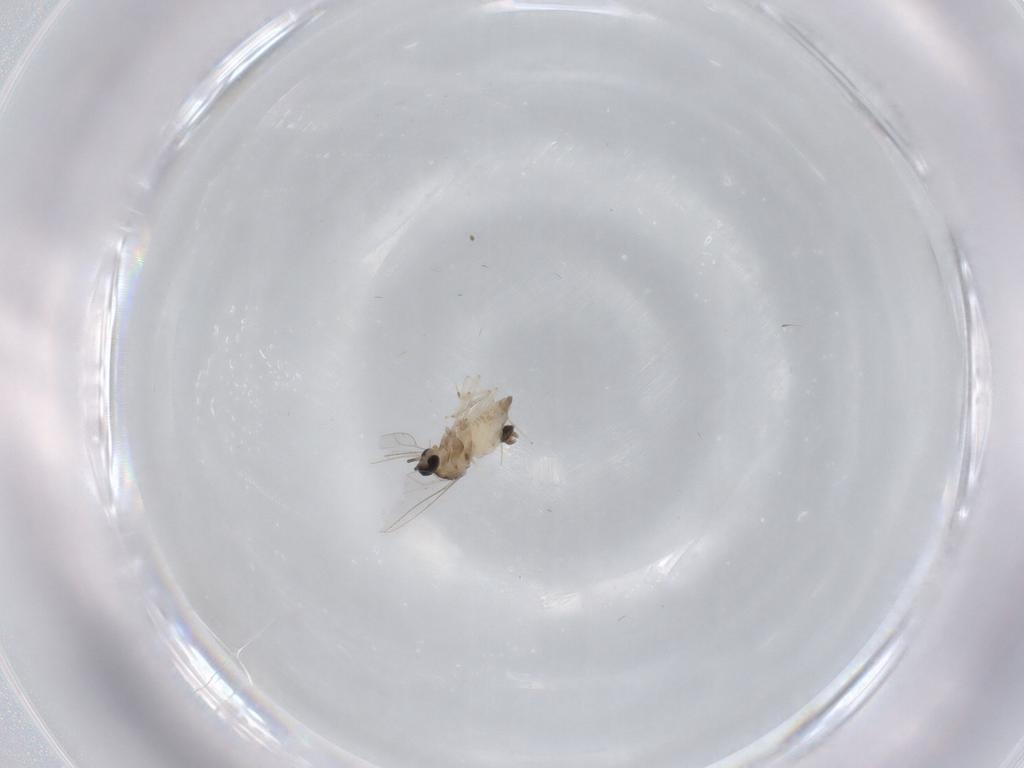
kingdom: Animalia
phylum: Arthropoda
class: Insecta
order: Diptera
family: Cecidomyiidae
